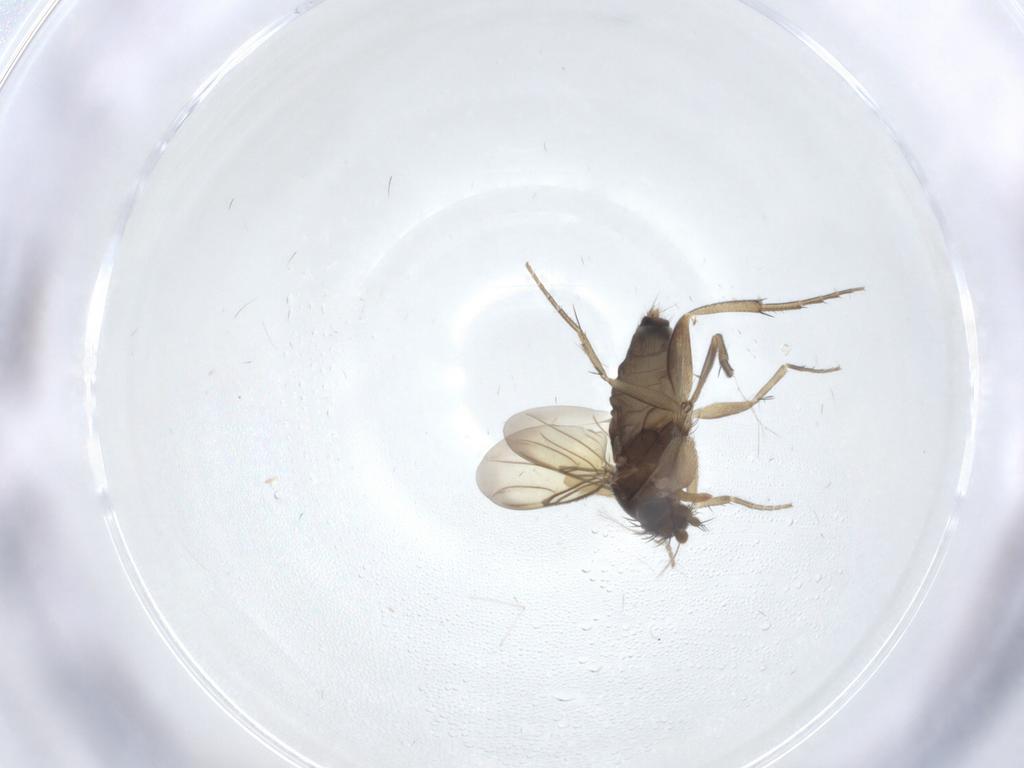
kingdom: Animalia
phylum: Arthropoda
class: Insecta
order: Diptera
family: Phoridae
